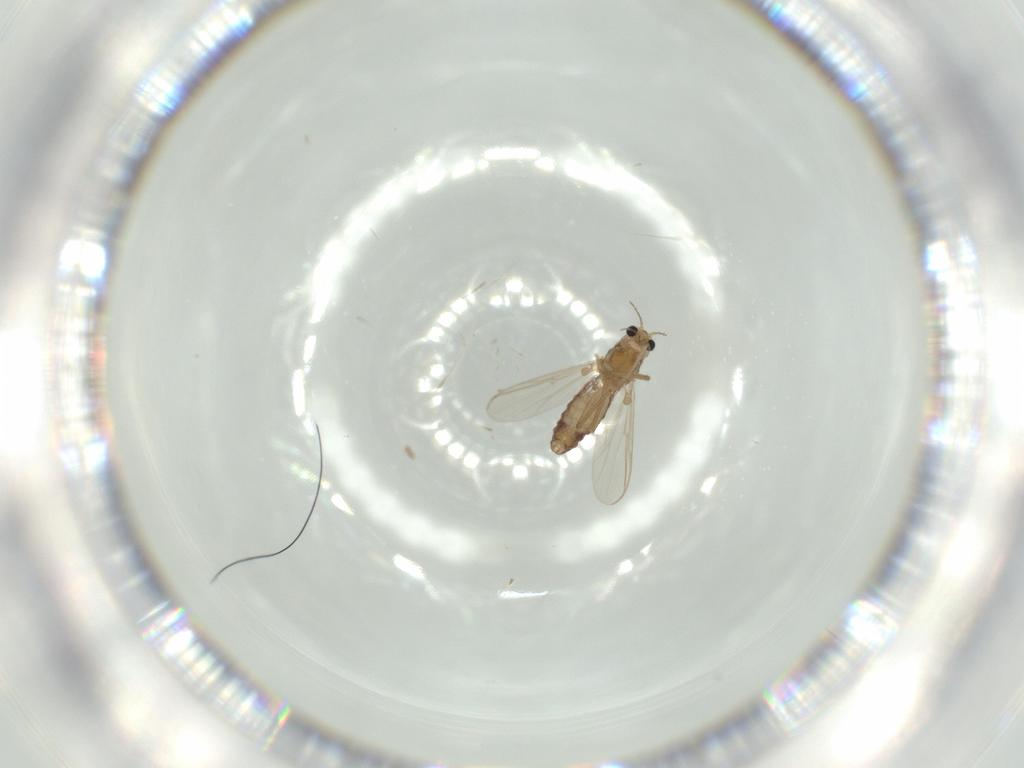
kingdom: Animalia
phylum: Arthropoda
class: Insecta
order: Diptera
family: Chironomidae
